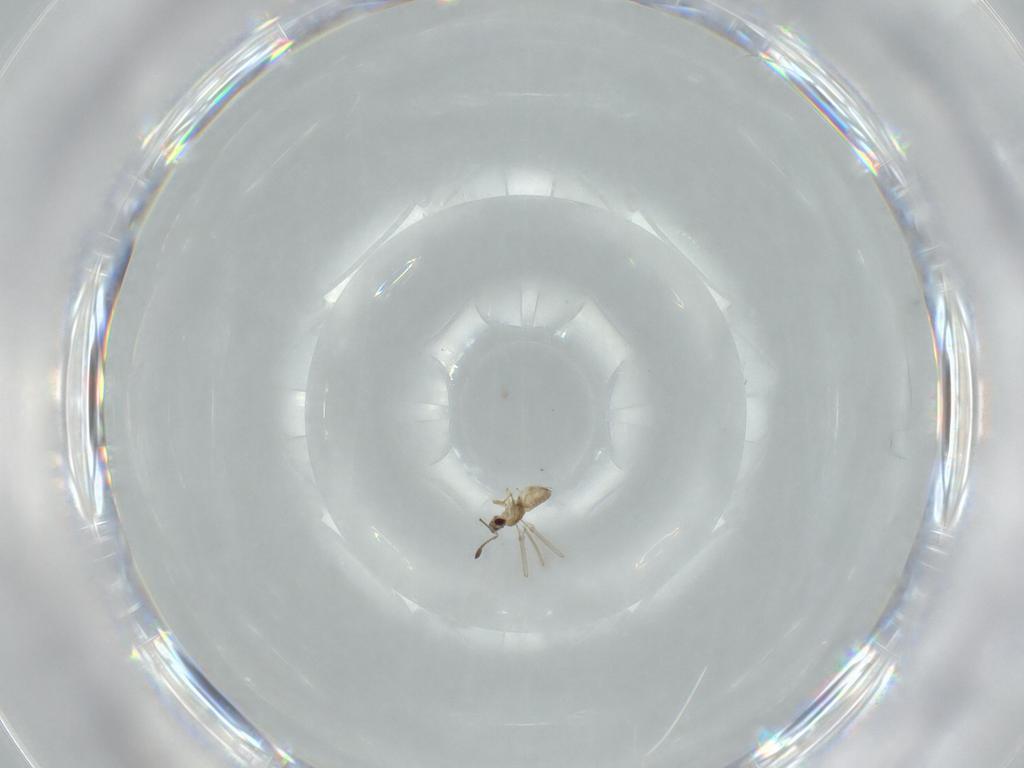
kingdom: Animalia
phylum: Arthropoda
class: Insecta
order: Hymenoptera
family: Mymaridae
